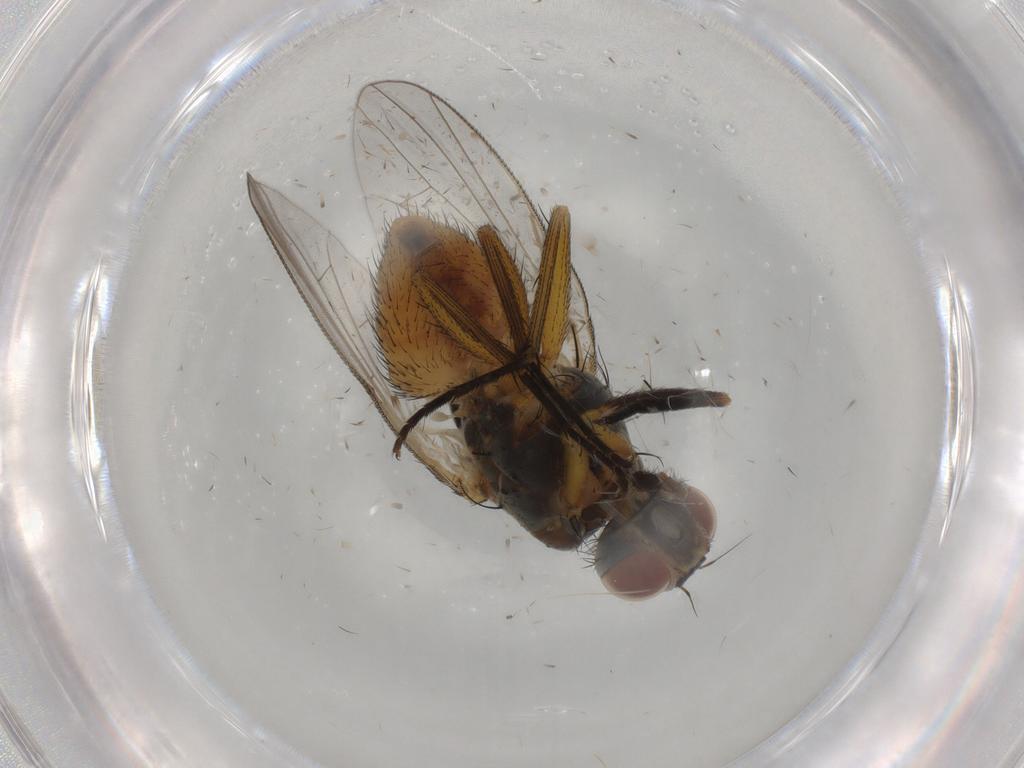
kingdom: Animalia
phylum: Arthropoda
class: Insecta
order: Diptera
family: Muscidae
